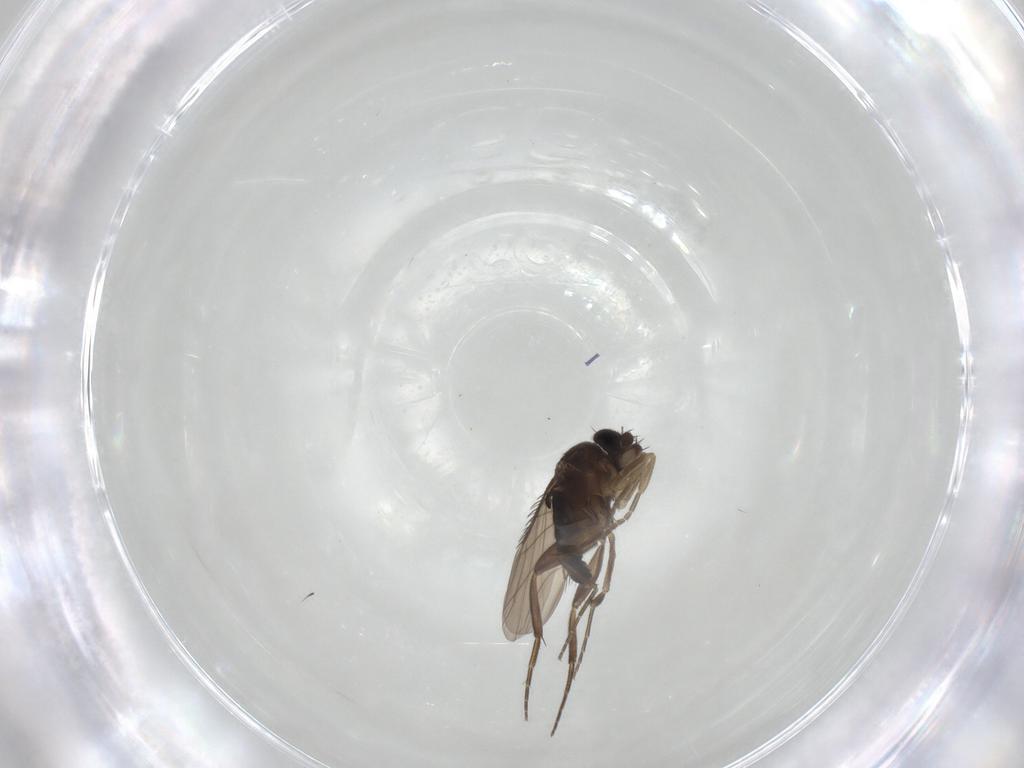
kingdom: Animalia
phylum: Arthropoda
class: Insecta
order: Diptera
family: Phoridae
